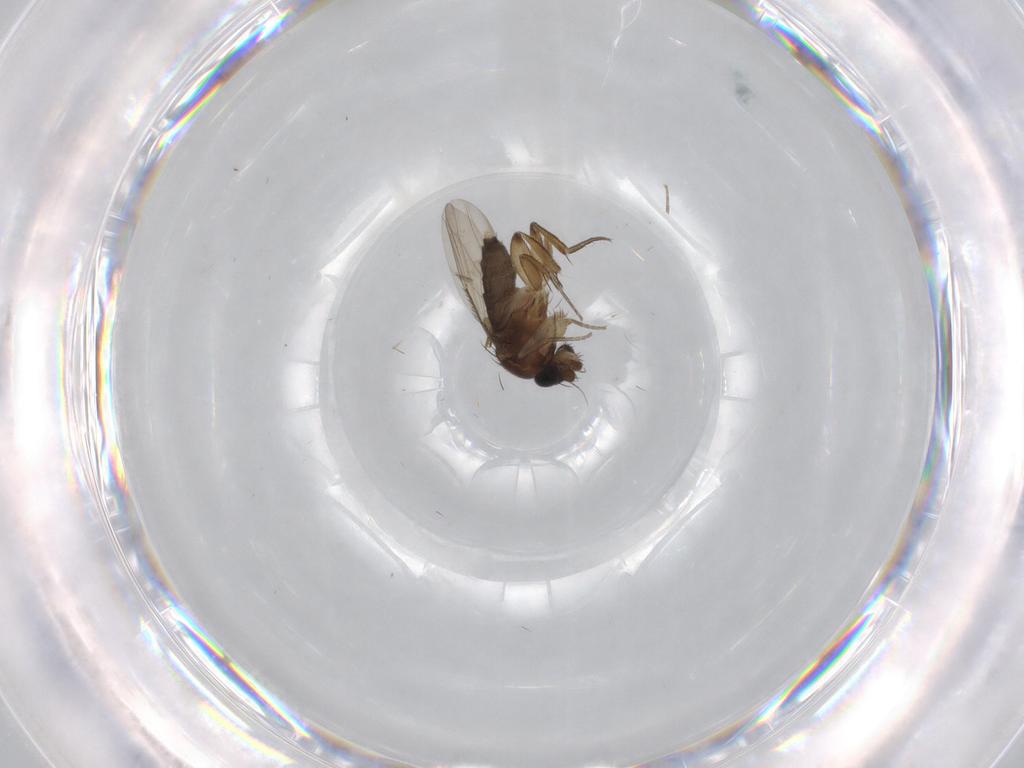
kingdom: Animalia
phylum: Arthropoda
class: Insecta
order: Diptera
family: Phoridae
